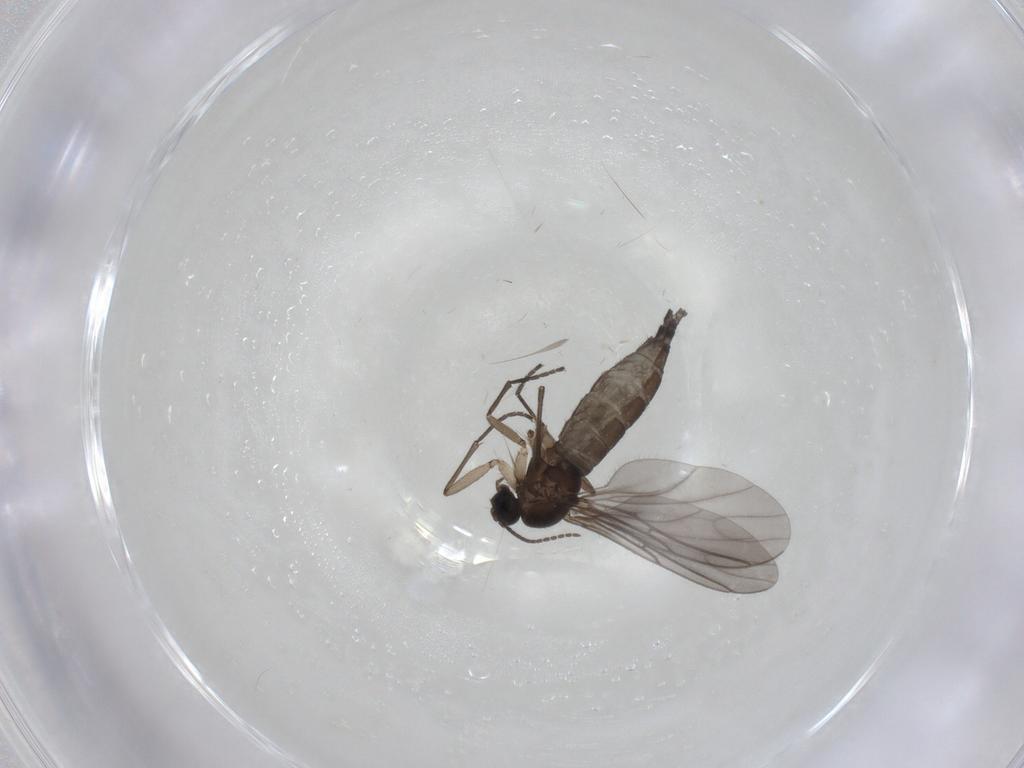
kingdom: Animalia
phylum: Arthropoda
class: Insecta
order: Diptera
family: Sciaridae
